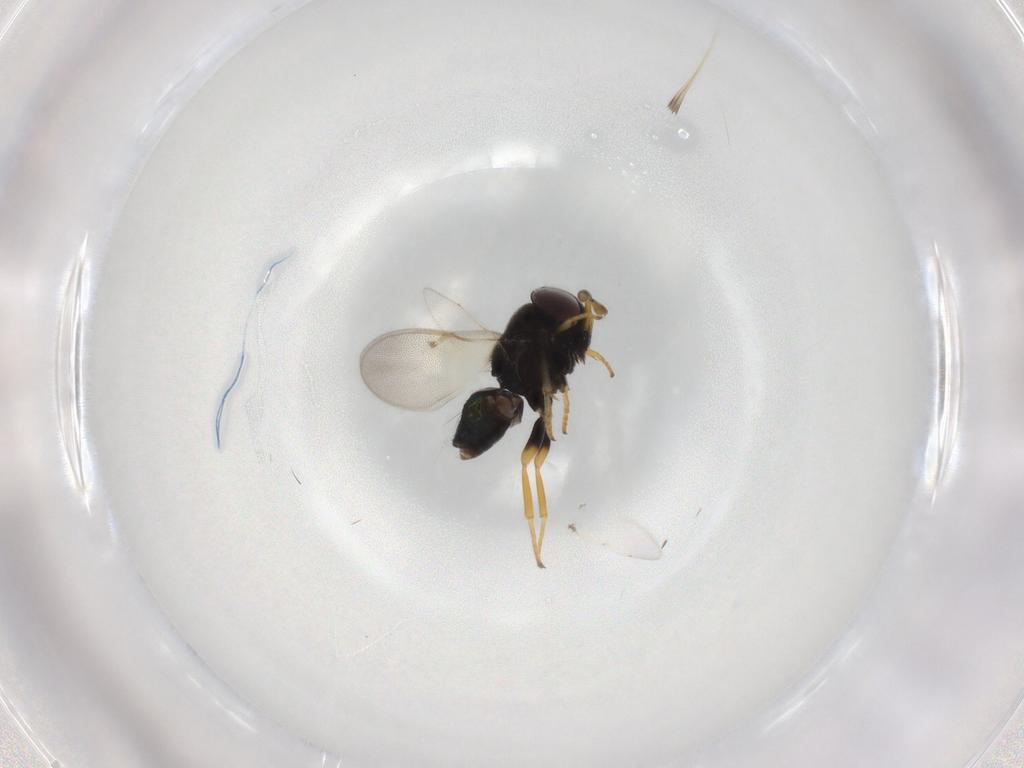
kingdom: Animalia
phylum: Arthropoda
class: Insecta
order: Hymenoptera
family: Encyrtidae
